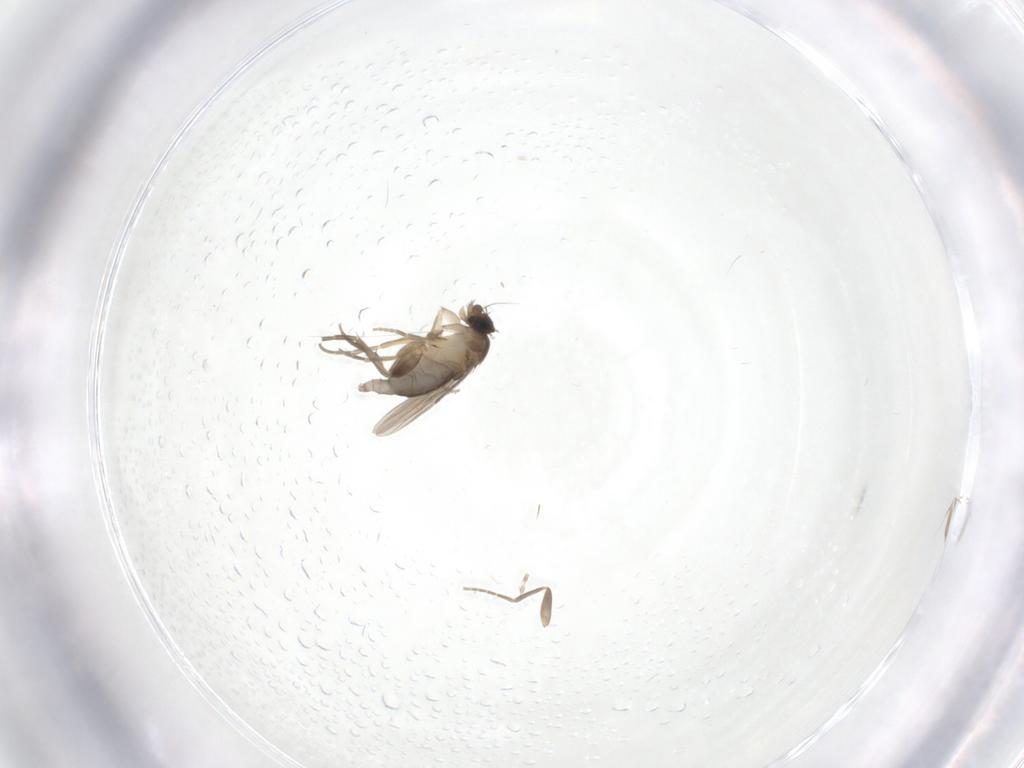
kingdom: Animalia
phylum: Arthropoda
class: Insecta
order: Diptera
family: Chironomidae
